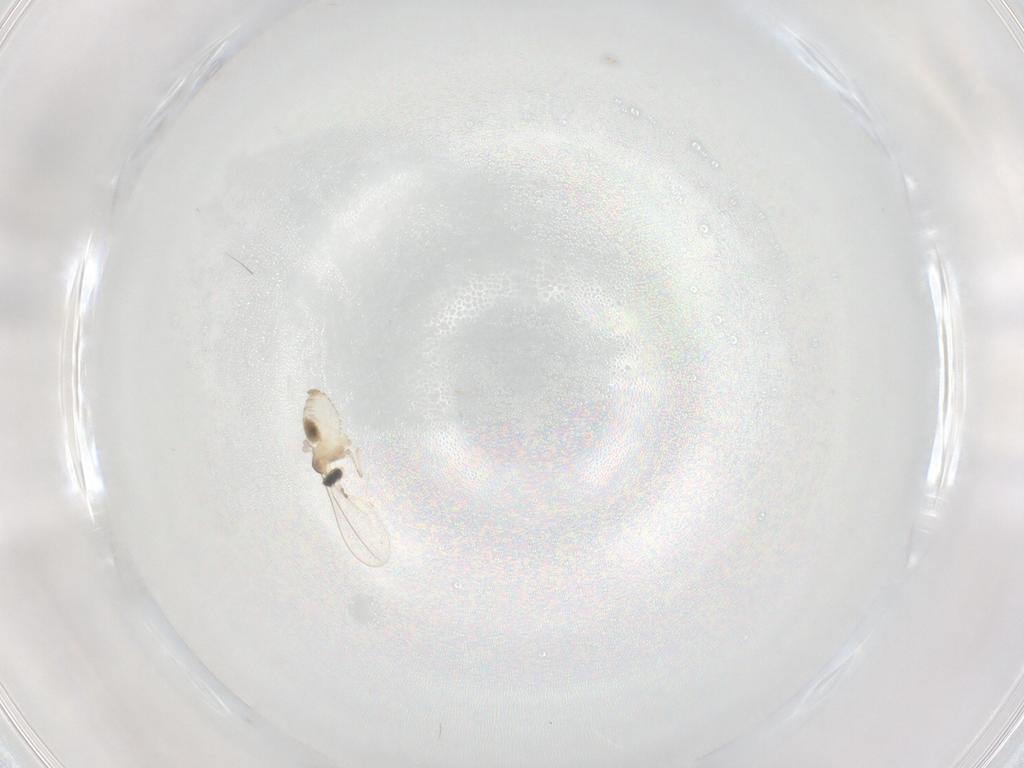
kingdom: Animalia
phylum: Arthropoda
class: Insecta
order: Diptera
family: Cecidomyiidae
